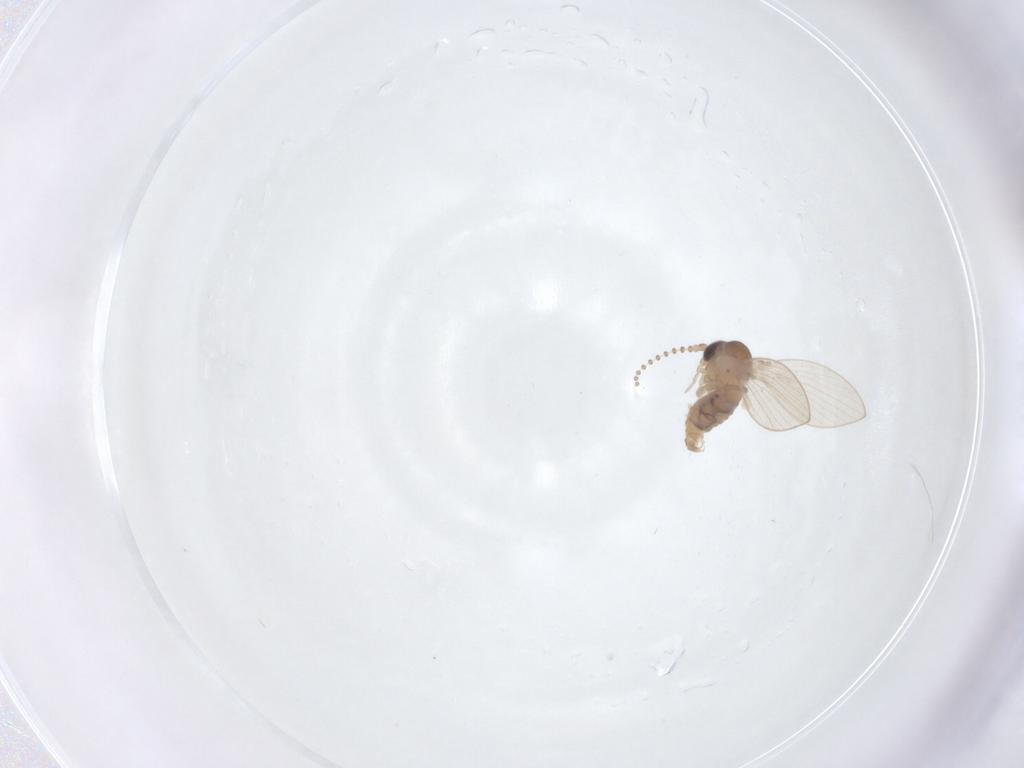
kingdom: Animalia
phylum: Arthropoda
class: Insecta
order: Diptera
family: Psychodidae
